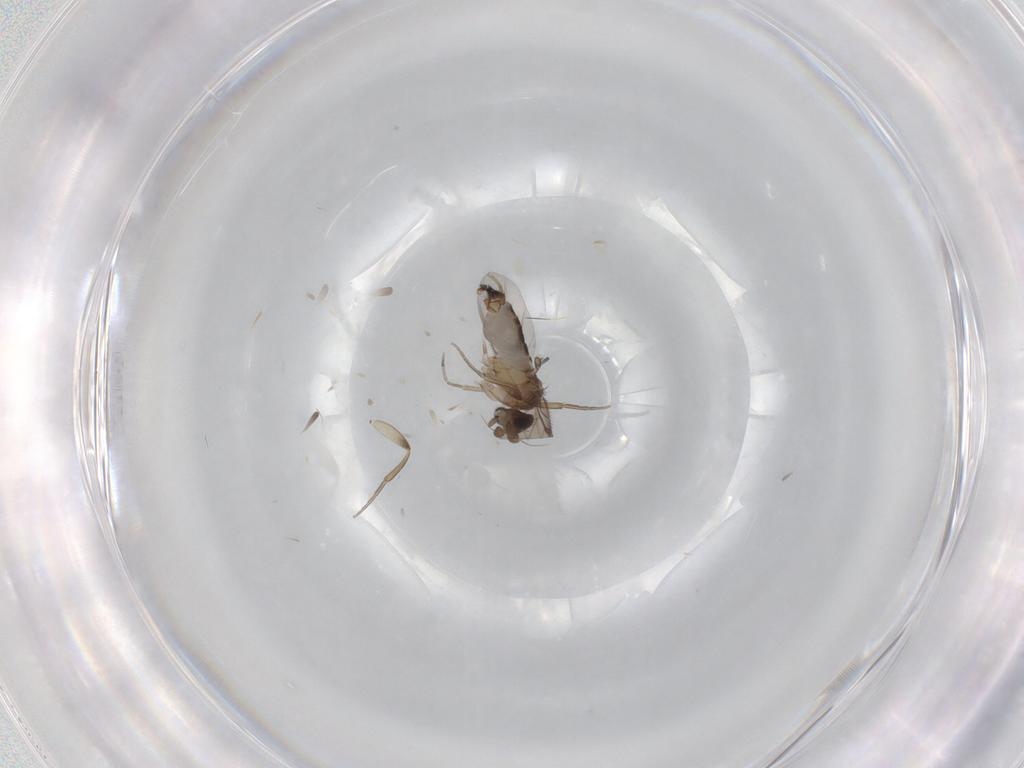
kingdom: Animalia
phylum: Arthropoda
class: Insecta
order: Diptera
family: Phoridae
